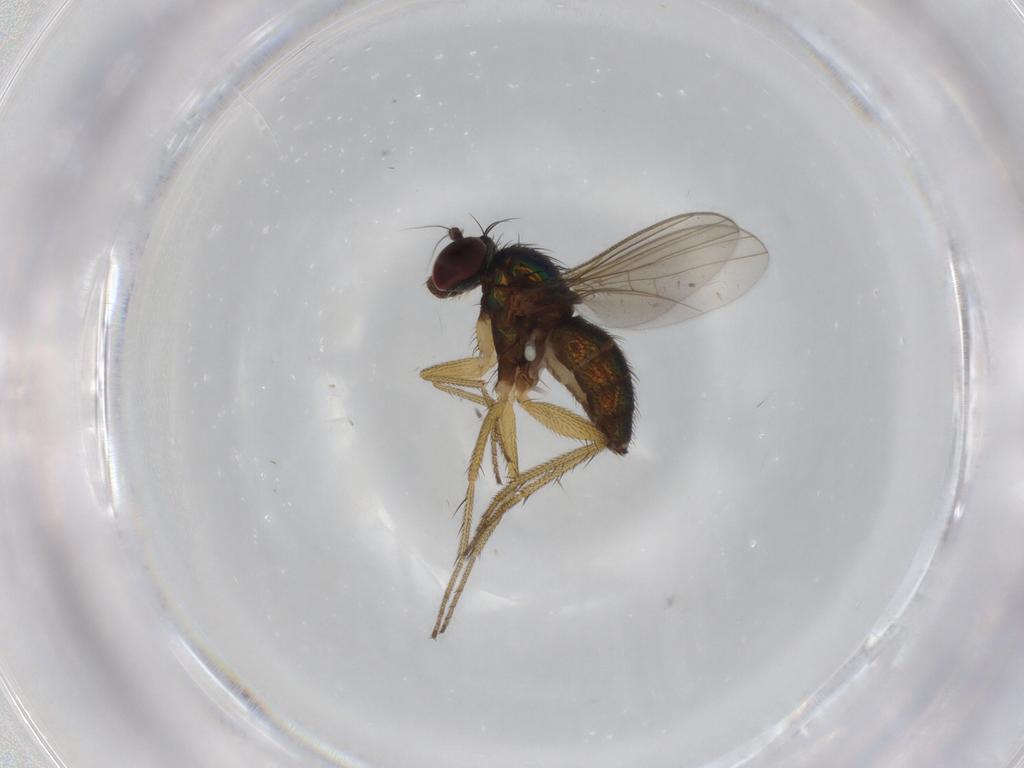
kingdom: Animalia
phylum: Arthropoda
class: Insecta
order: Diptera
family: Dolichopodidae
